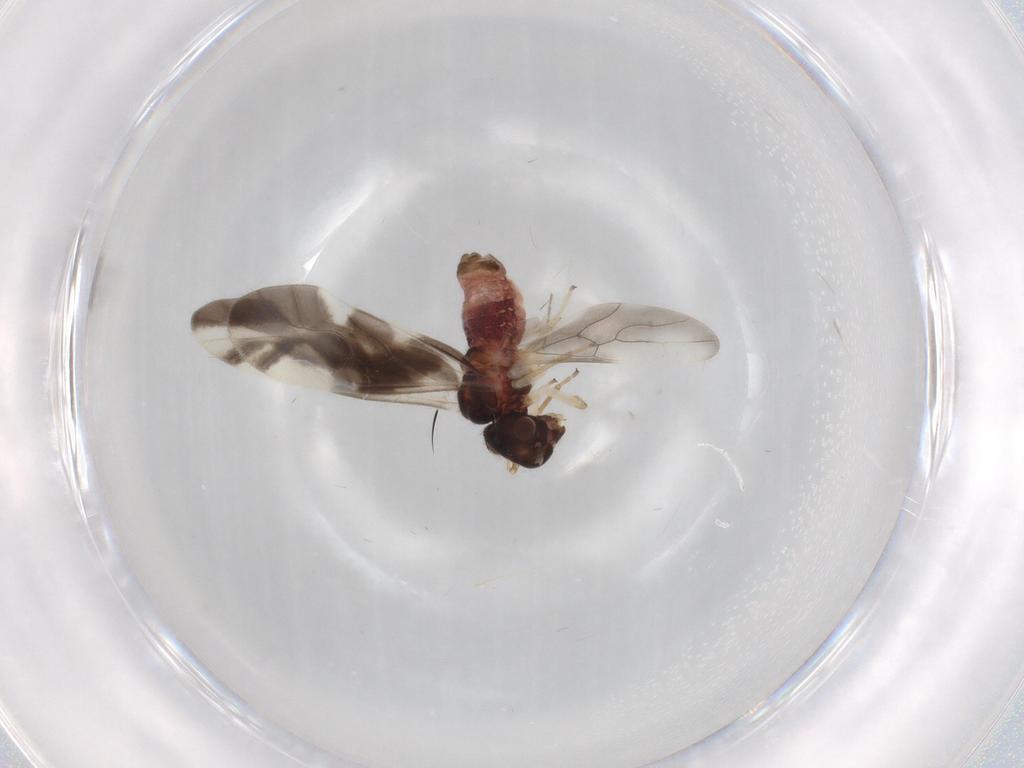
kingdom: Animalia
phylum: Arthropoda
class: Insecta
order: Psocodea
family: Caeciliusidae
